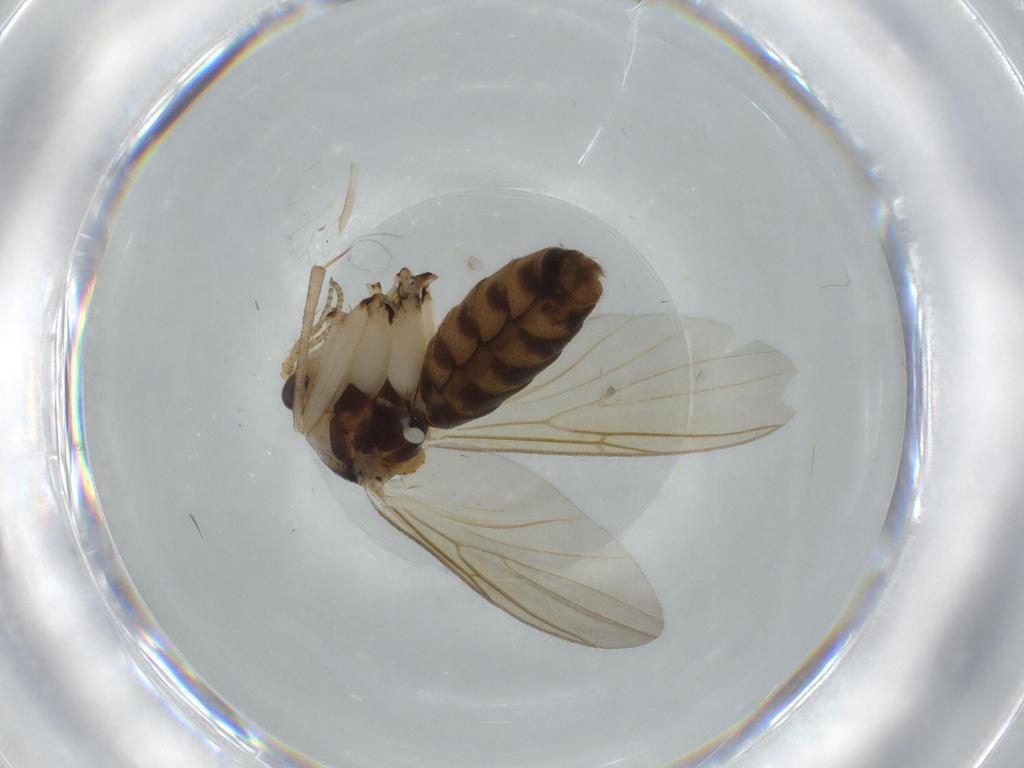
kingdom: Animalia
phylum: Arthropoda
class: Insecta
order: Diptera
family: Mycetophilidae
